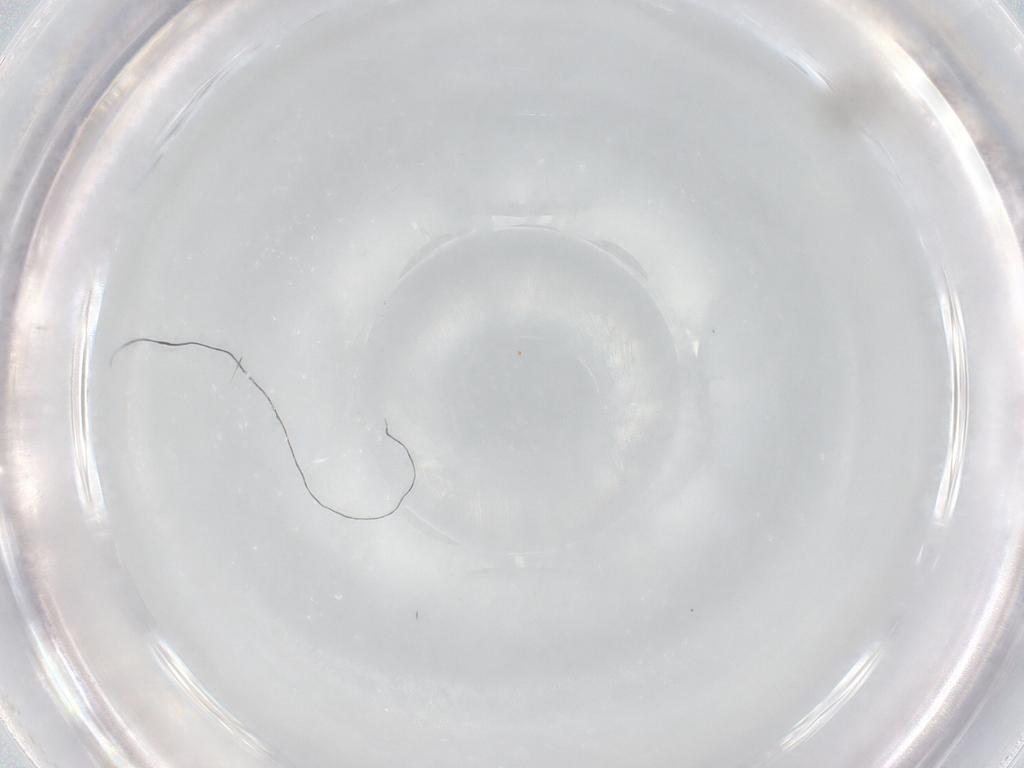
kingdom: Animalia
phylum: Arthropoda
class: Insecta
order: Diptera
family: Cecidomyiidae
